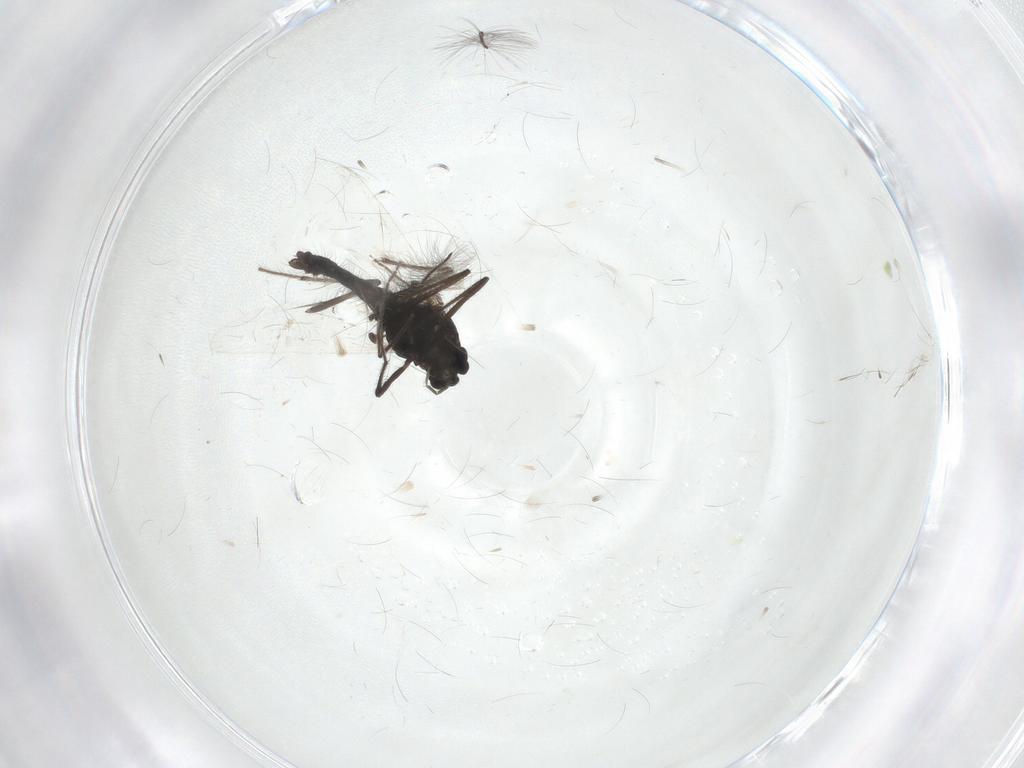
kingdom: Animalia
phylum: Arthropoda
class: Insecta
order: Diptera
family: Chironomidae
